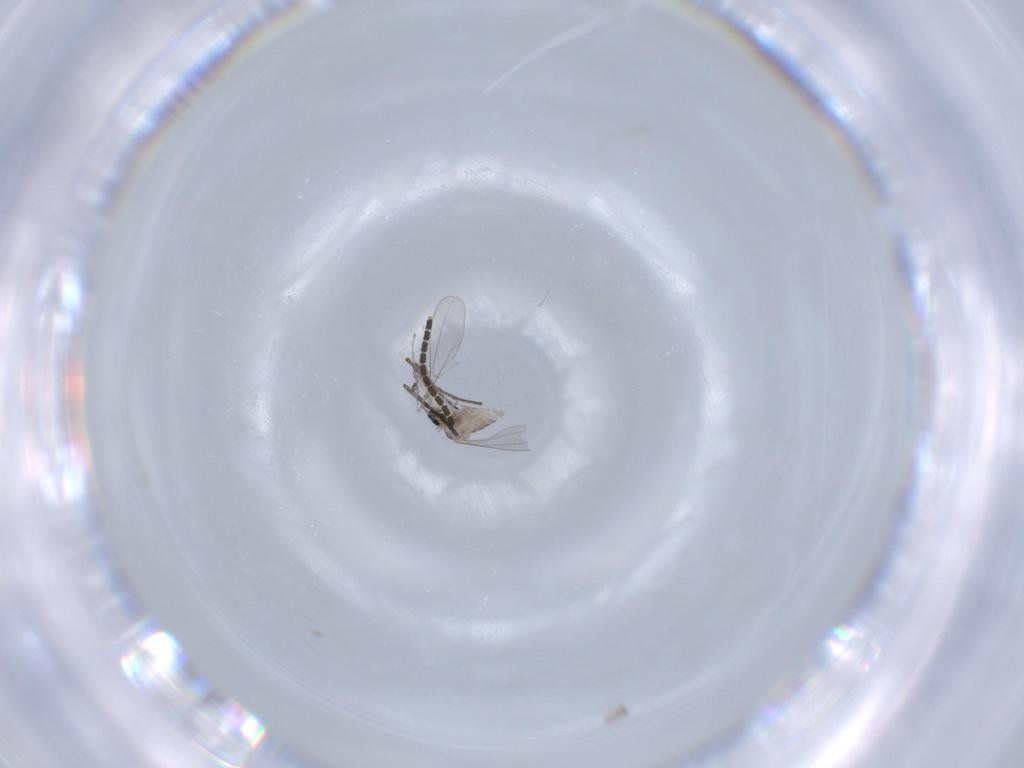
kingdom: Animalia
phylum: Arthropoda
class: Insecta
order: Diptera
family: Cecidomyiidae
